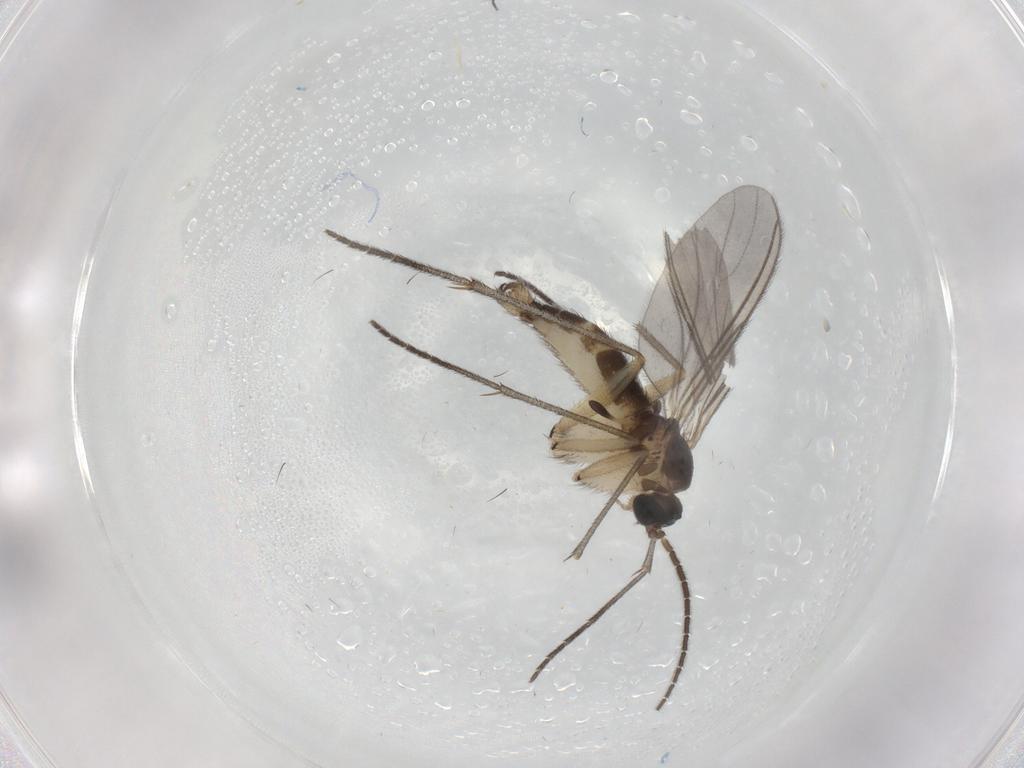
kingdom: Animalia
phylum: Arthropoda
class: Insecta
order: Diptera
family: Sciaridae
